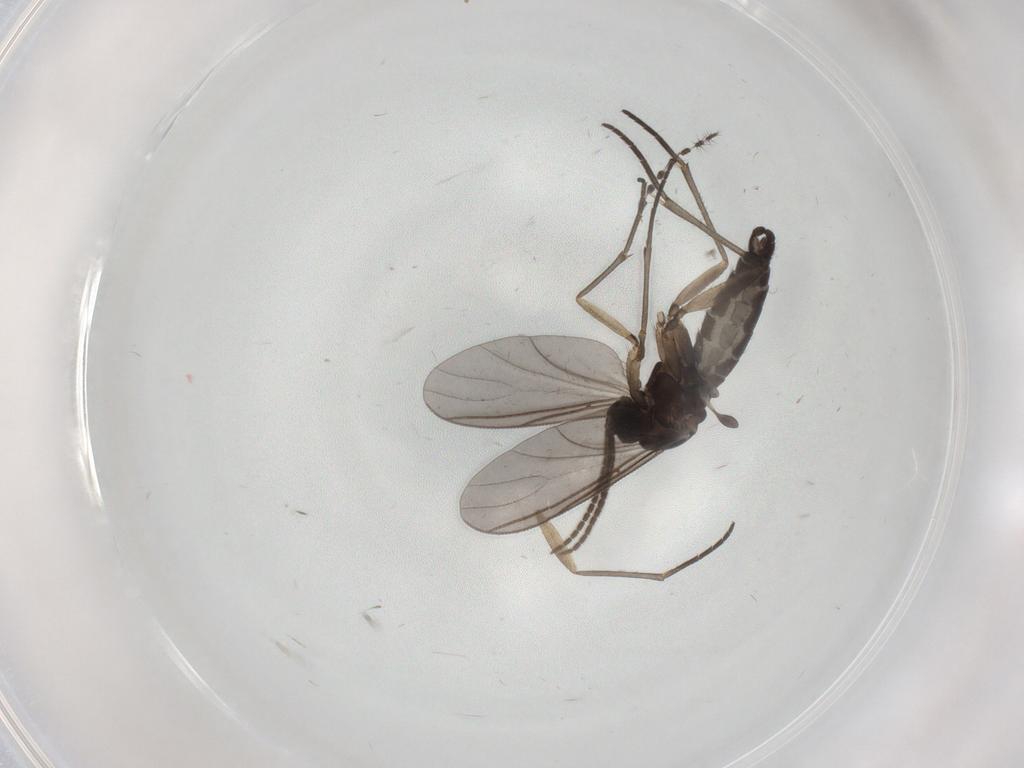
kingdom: Animalia
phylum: Arthropoda
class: Insecta
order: Diptera
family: Sciaridae
